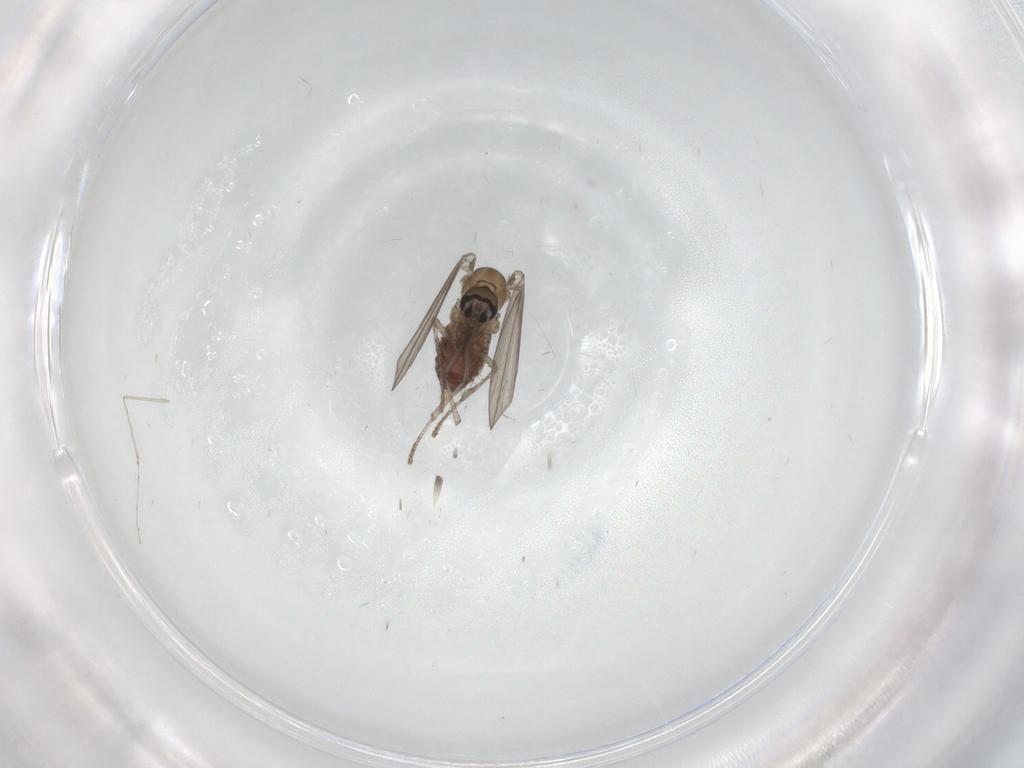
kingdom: Animalia
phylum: Arthropoda
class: Insecta
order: Diptera
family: Psychodidae
